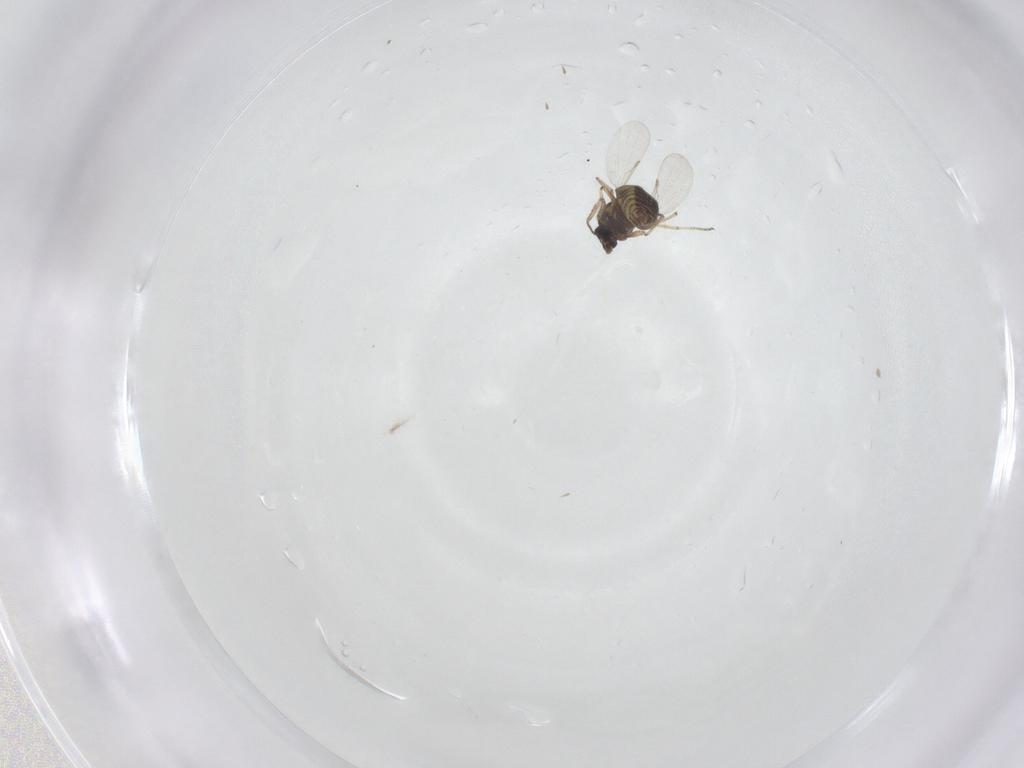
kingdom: Animalia
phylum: Arthropoda
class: Insecta
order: Diptera
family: Ceratopogonidae
